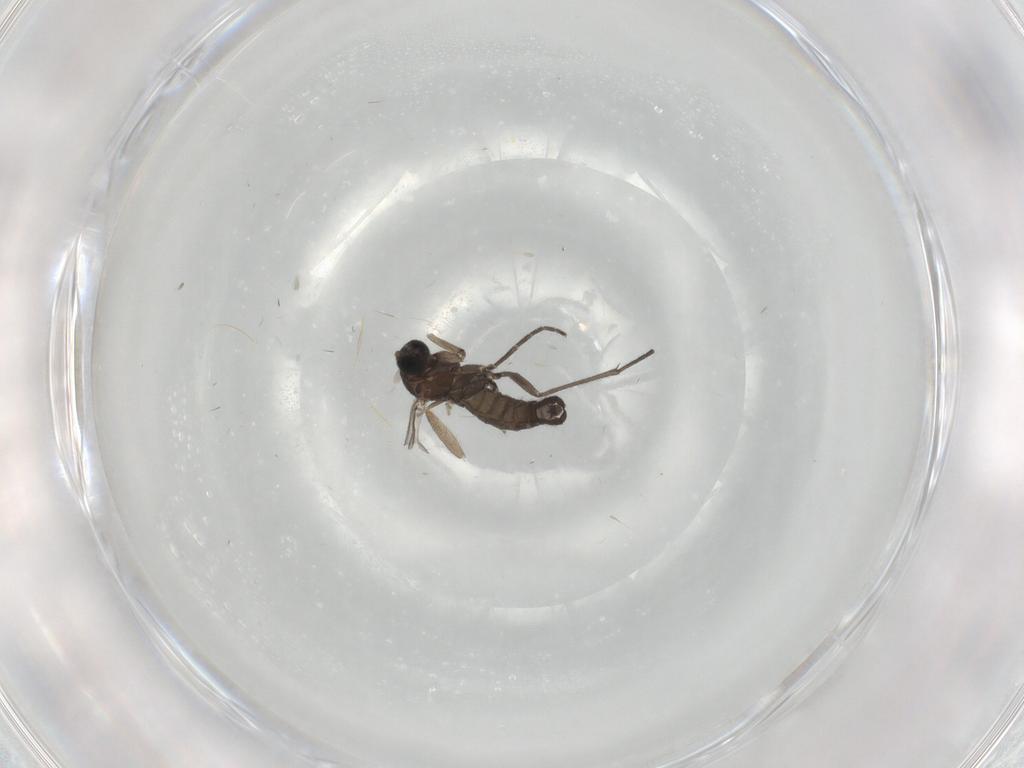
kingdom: Animalia
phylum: Arthropoda
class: Insecta
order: Diptera
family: Sciaridae
